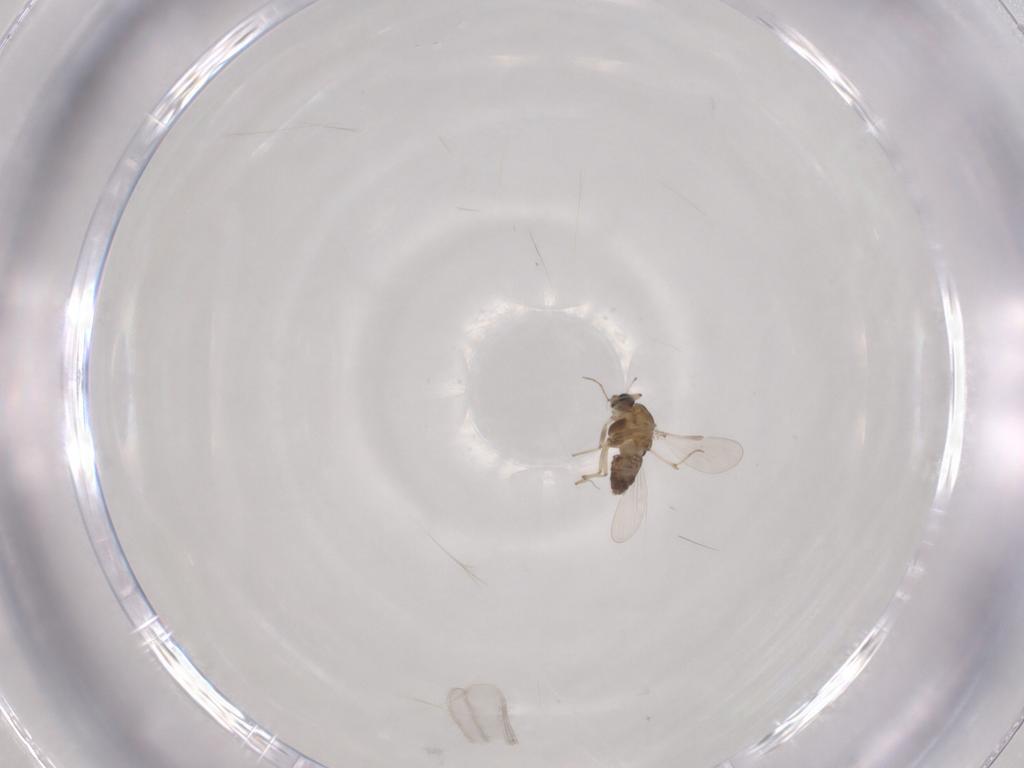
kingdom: Animalia
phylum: Arthropoda
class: Insecta
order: Diptera
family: Chironomidae
